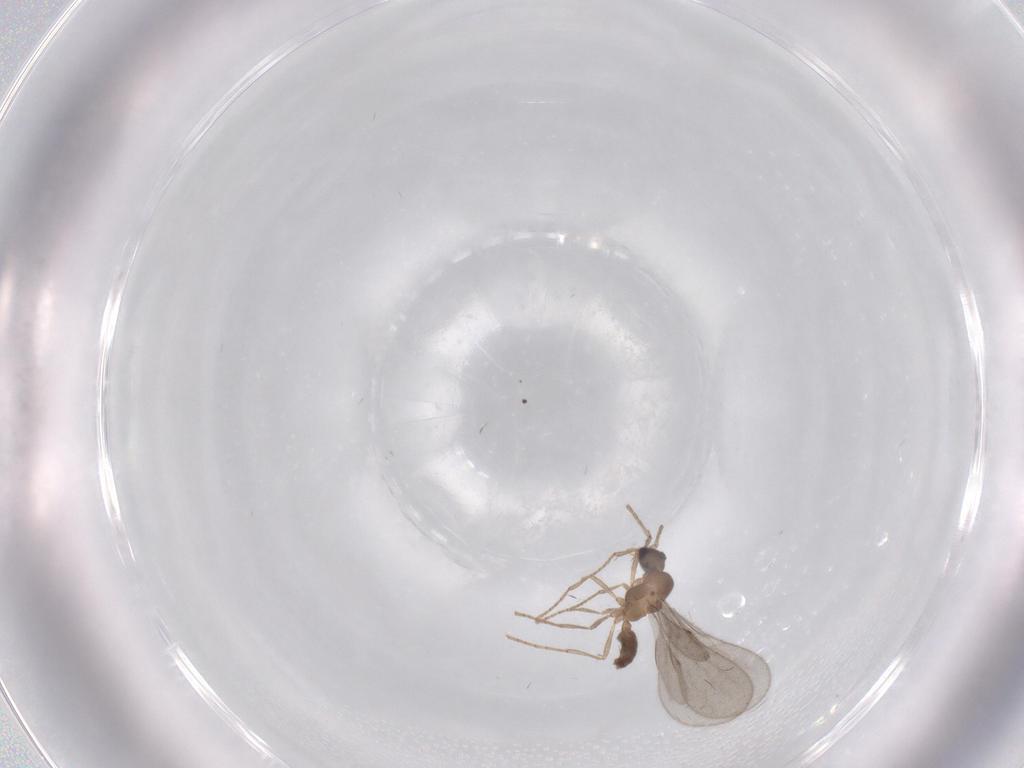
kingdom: Animalia
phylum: Arthropoda
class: Insecta
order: Hymenoptera
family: Formicidae
